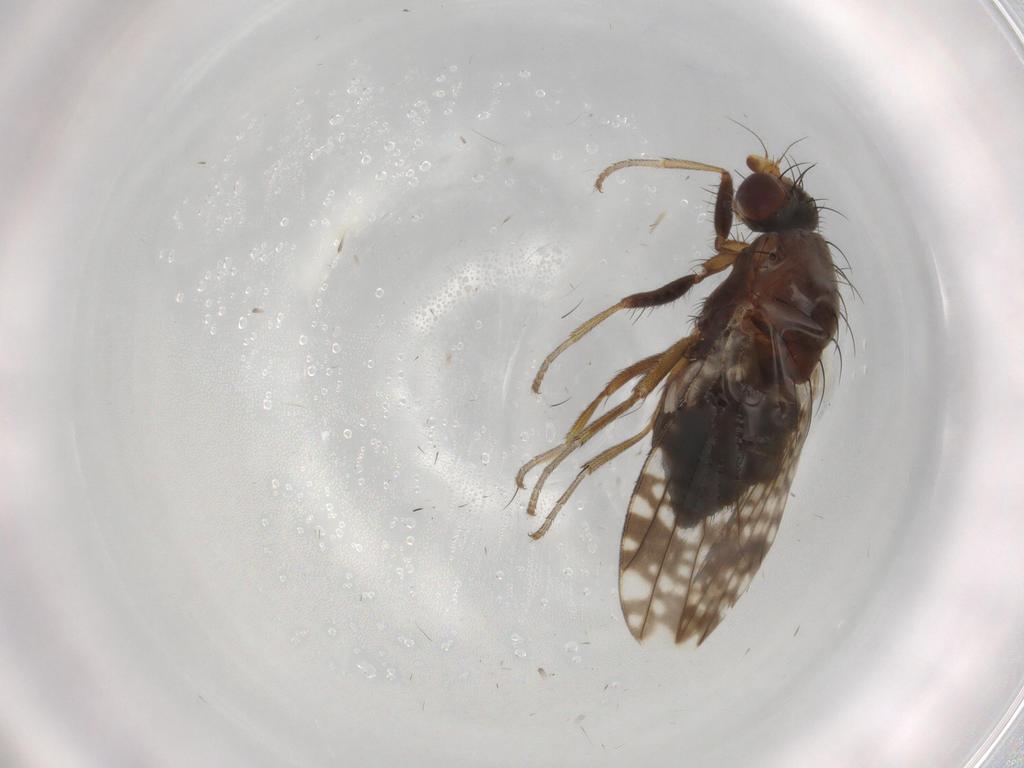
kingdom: Animalia
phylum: Arthropoda
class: Insecta
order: Diptera
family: Tephritidae
